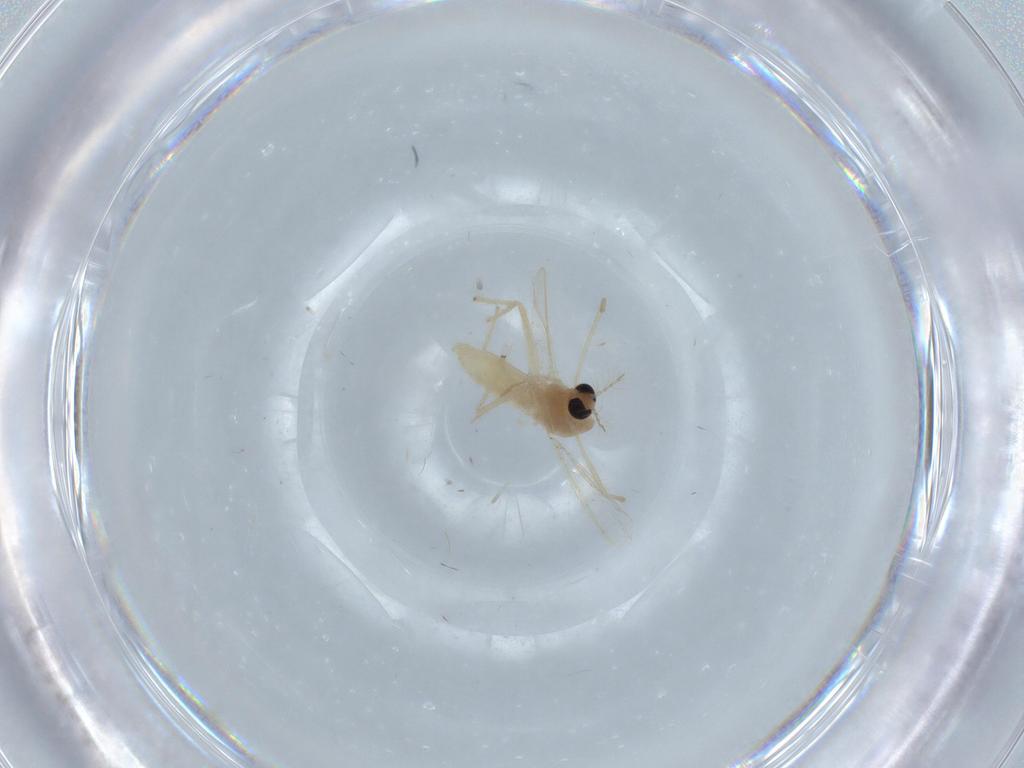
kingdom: Animalia
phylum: Arthropoda
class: Insecta
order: Diptera
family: Chironomidae
